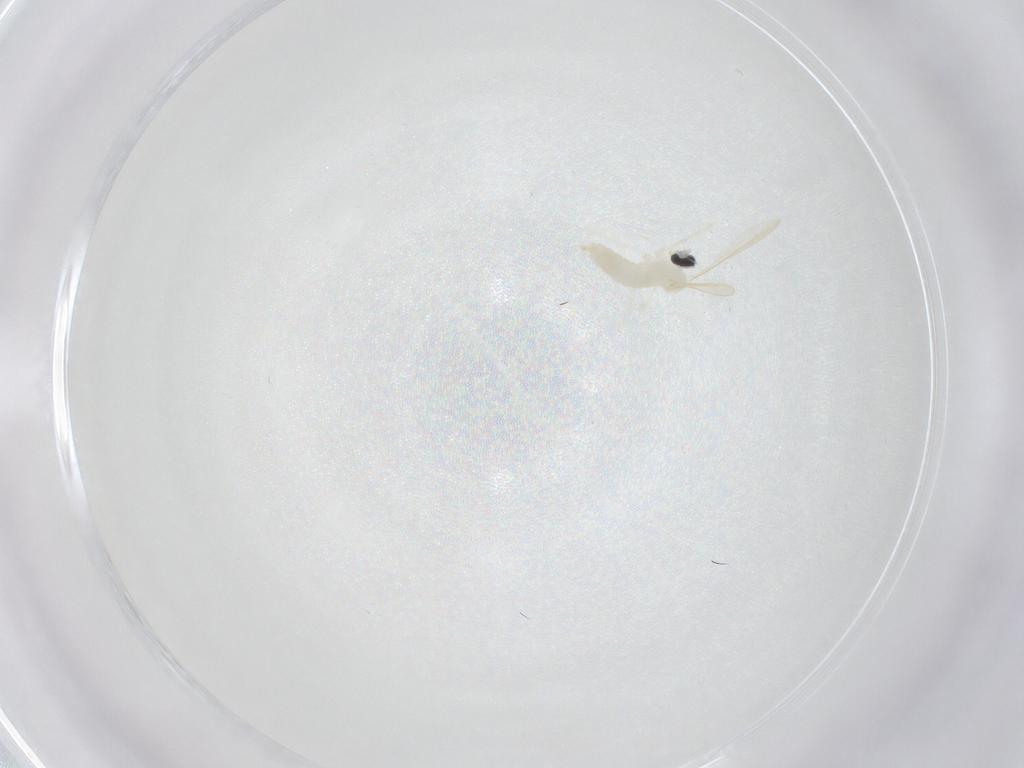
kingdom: Animalia
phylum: Arthropoda
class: Insecta
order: Diptera
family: Cecidomyiidae
